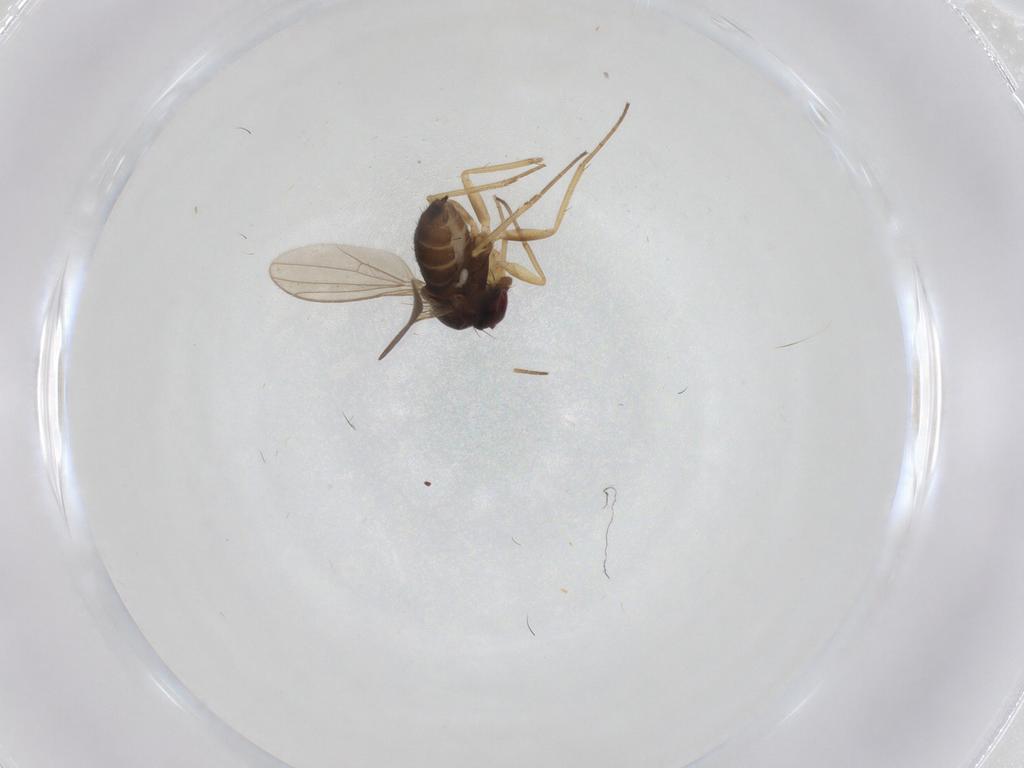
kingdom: Animalia
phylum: Arthropoda
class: Insecta
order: Diptera
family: Dolichopodidae
